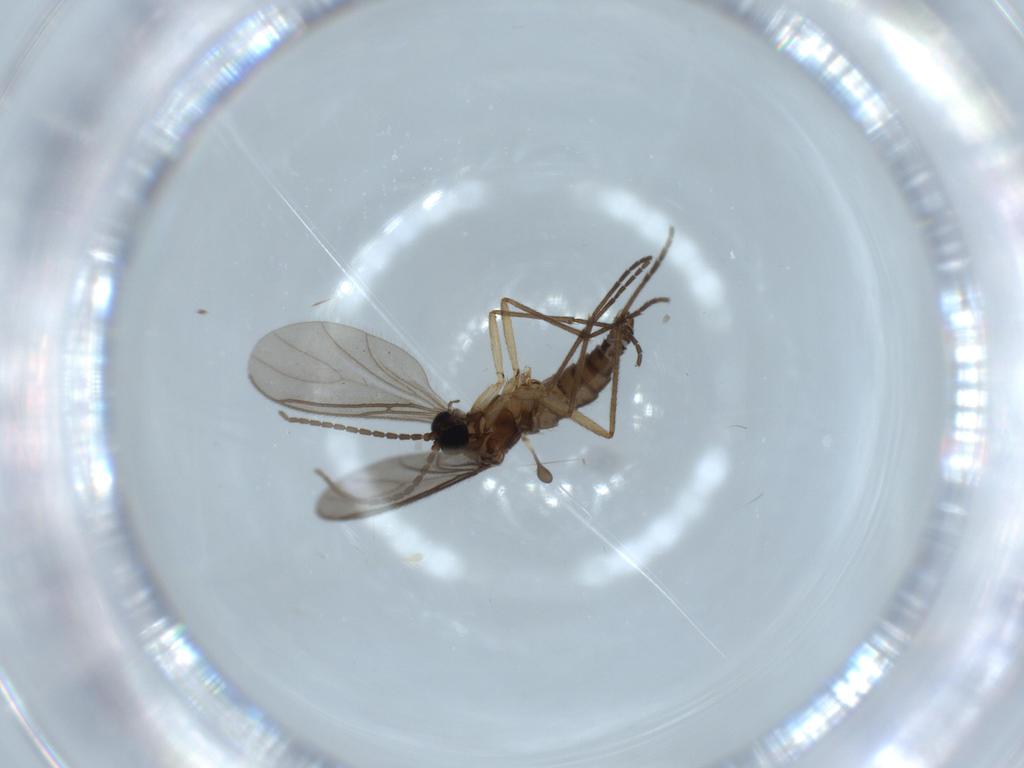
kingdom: Animalia
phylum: Arthropoda
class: Insecta
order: Diptera
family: Sciaridae
